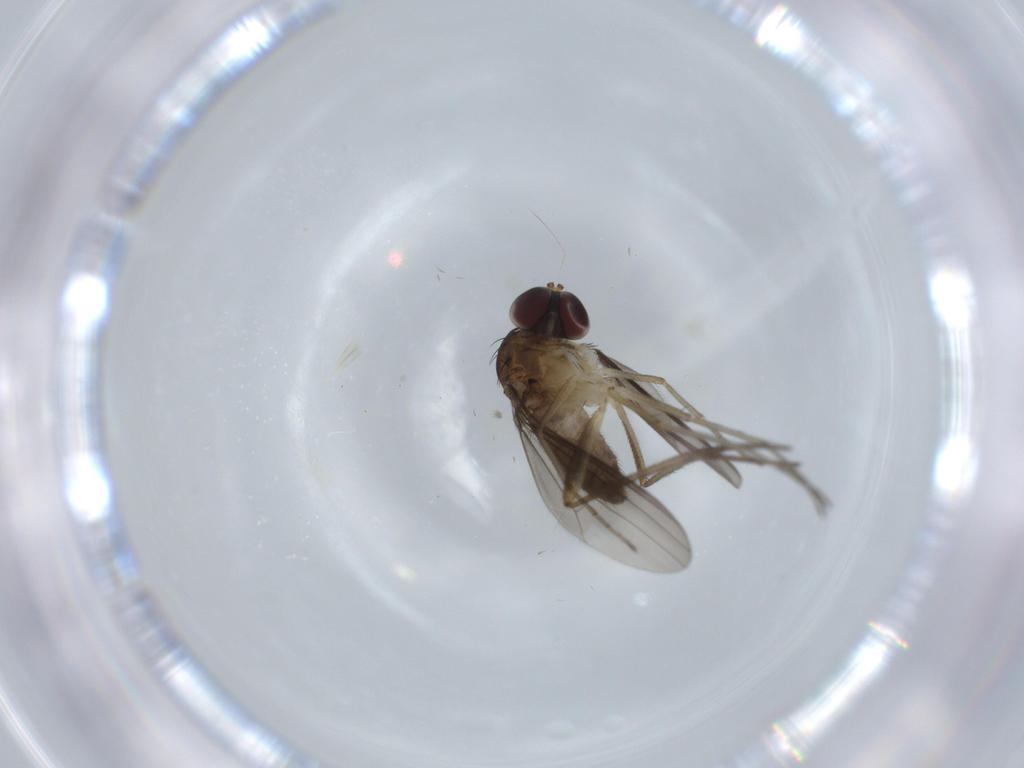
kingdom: Animalia
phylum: Arthropoda
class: Insecta
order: Diptera
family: Dolichopodidae
